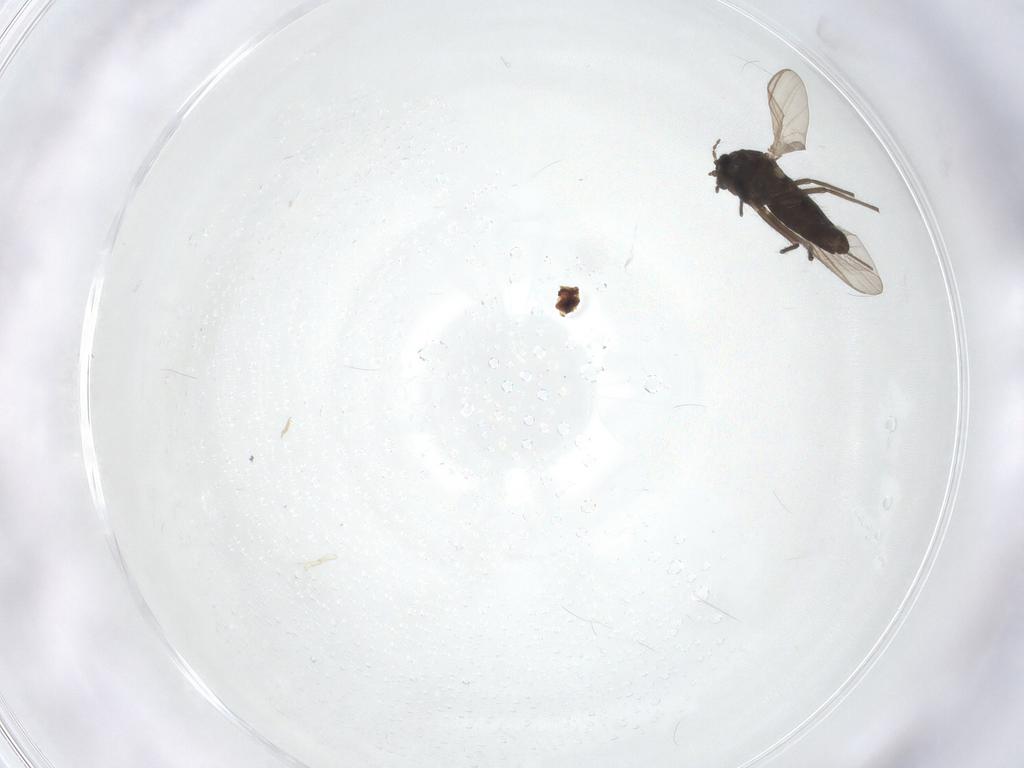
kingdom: Animalia
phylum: Arthropoda
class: Insecta
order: Diptera
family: Chironomidae
